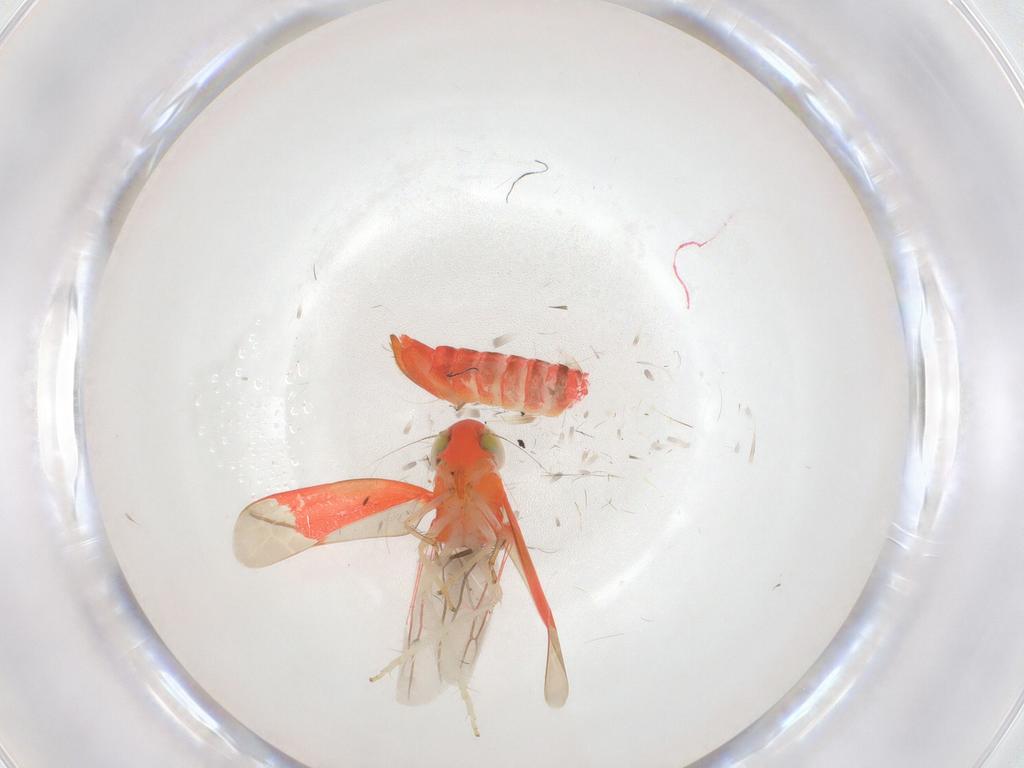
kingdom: Animalia
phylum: Arthropoda
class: Insecta
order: Hemiptera
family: Cicadellidae
